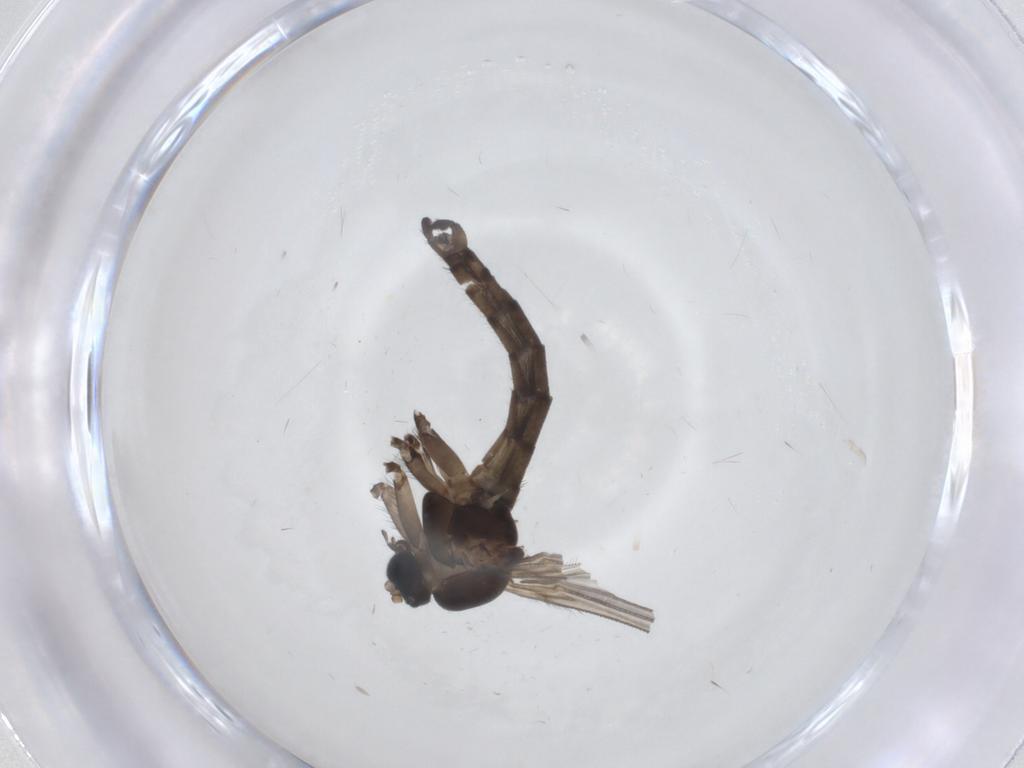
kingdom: Animalia
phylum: Arthropoda
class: Insecta
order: Diptera
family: Sciaridae
